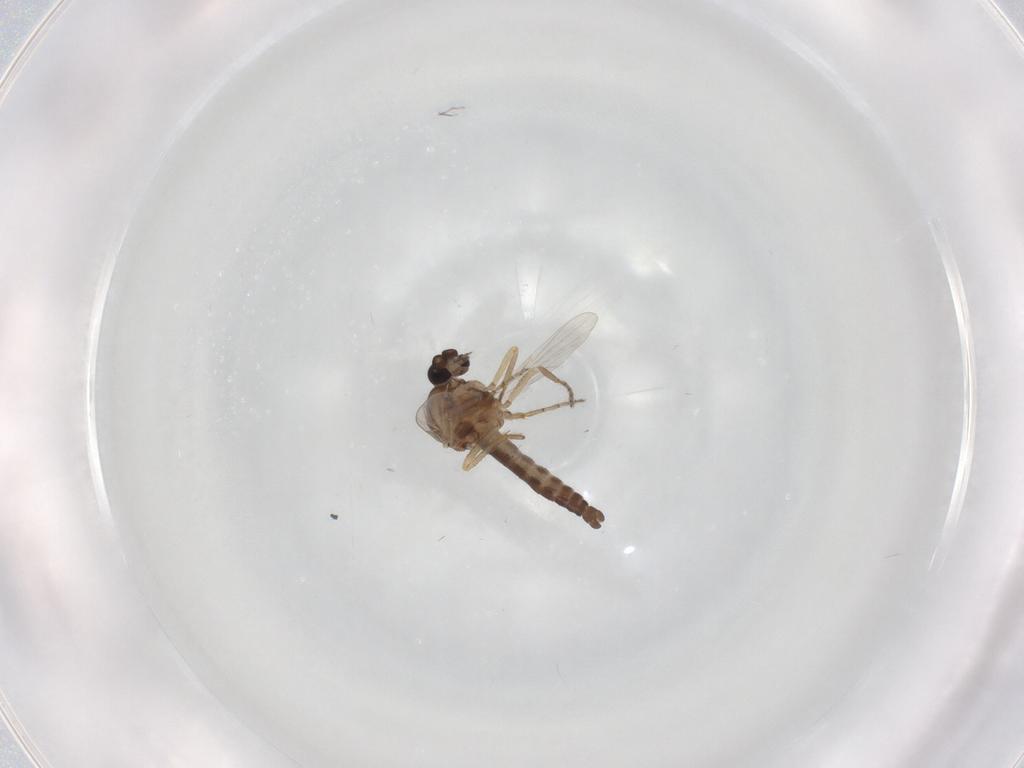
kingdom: Animalia
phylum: Arthropoda
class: Insecta
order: Diptera
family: Ceratopogonidae
